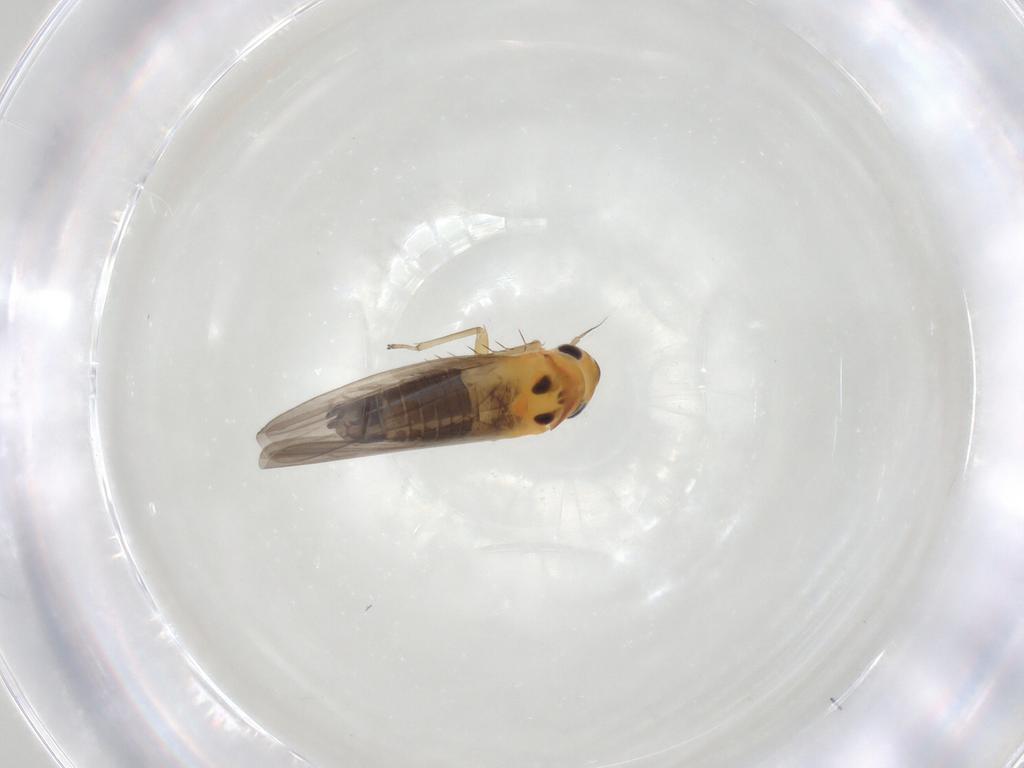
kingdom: Animalia
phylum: Arthropoda
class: Insecta
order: Hemiptera
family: Cicadellidae
